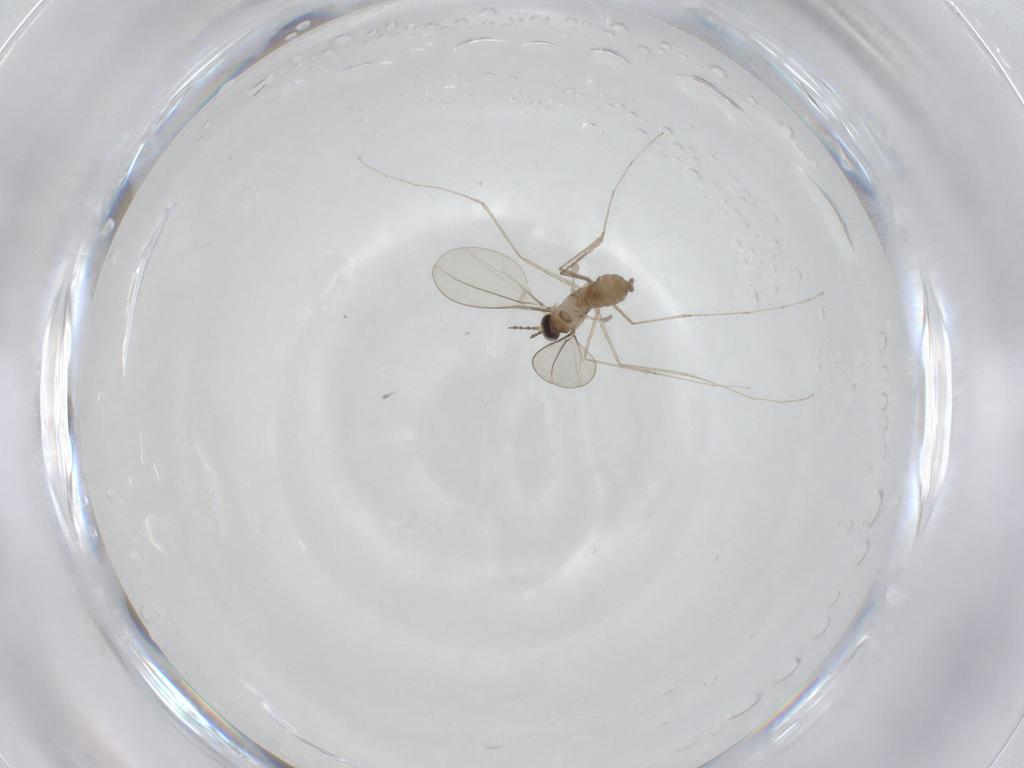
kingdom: Animalia
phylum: Arthropoda
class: Insecta
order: Diptera
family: Cecidomyiidae
